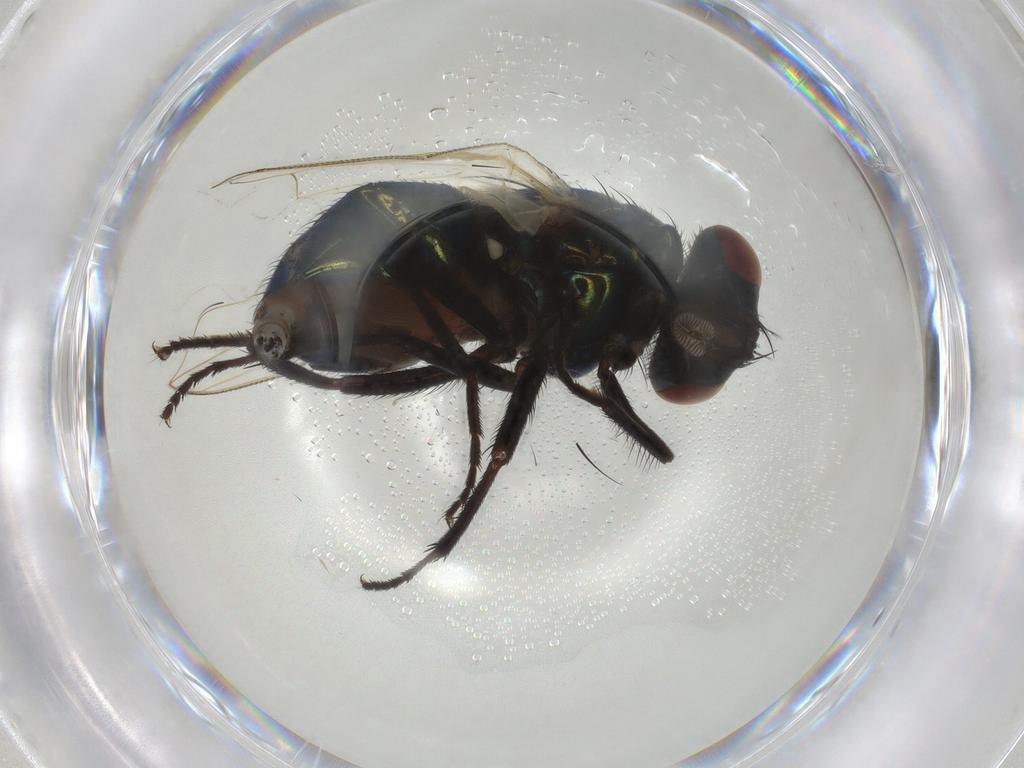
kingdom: Animalia
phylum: Arthropoda
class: Insecta
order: Diptera
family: Muscidae
